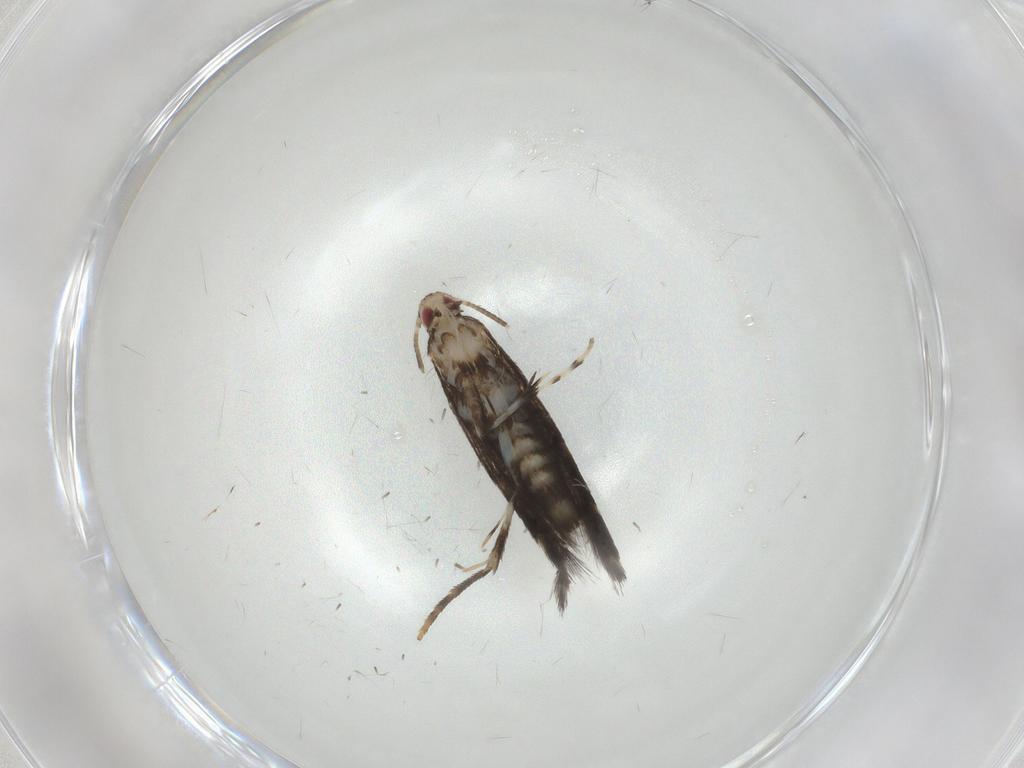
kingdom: Animalia
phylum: Arthropoda
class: Insecta
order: Lepidoptera
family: Gracillariidae
